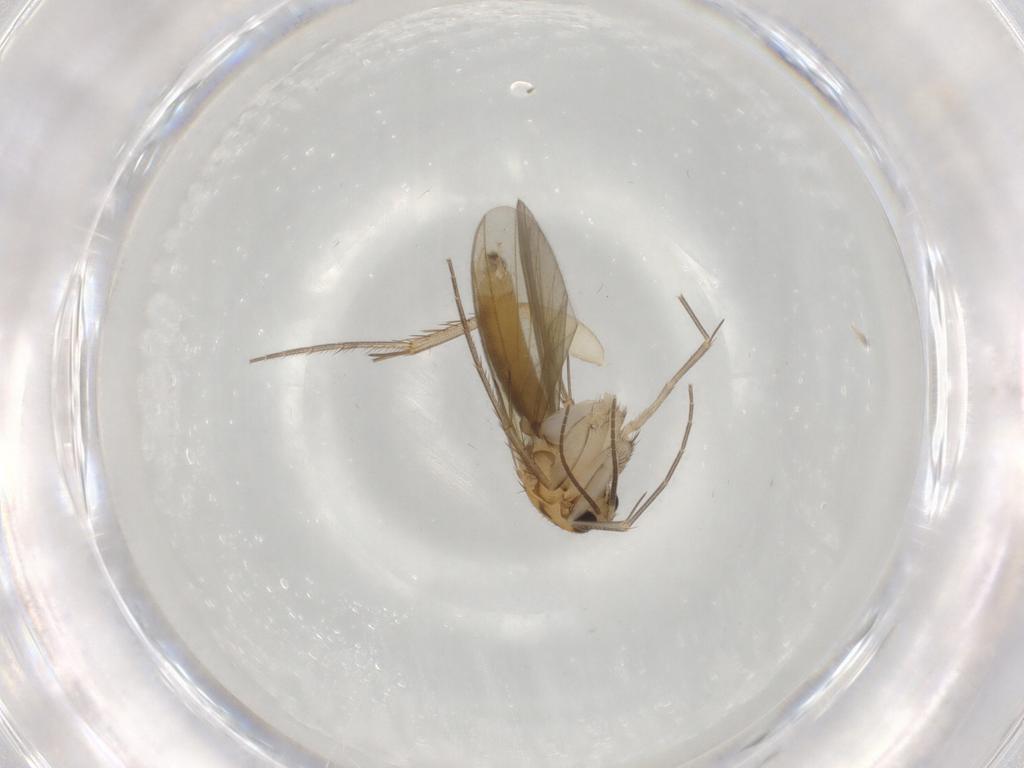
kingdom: Animalia
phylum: Arthropoda
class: Insecta
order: Diptera
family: Mycetophilidae
